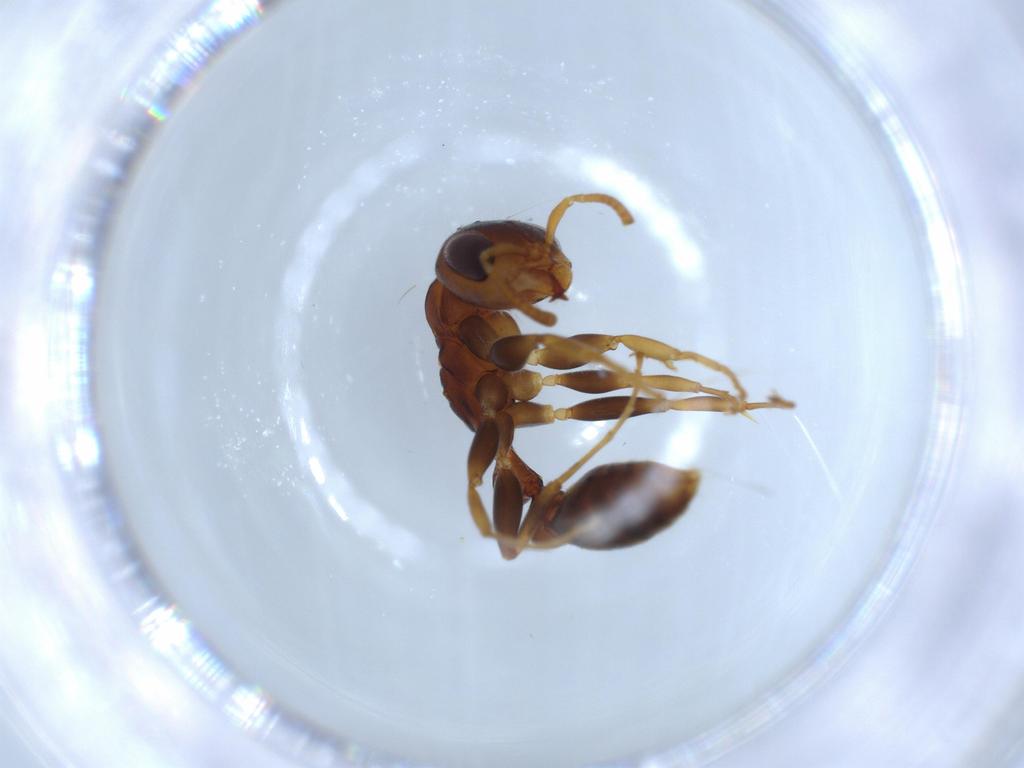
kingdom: Animalia
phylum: Arthropoda
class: Insecta
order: Hymenoptera
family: Formicidae
